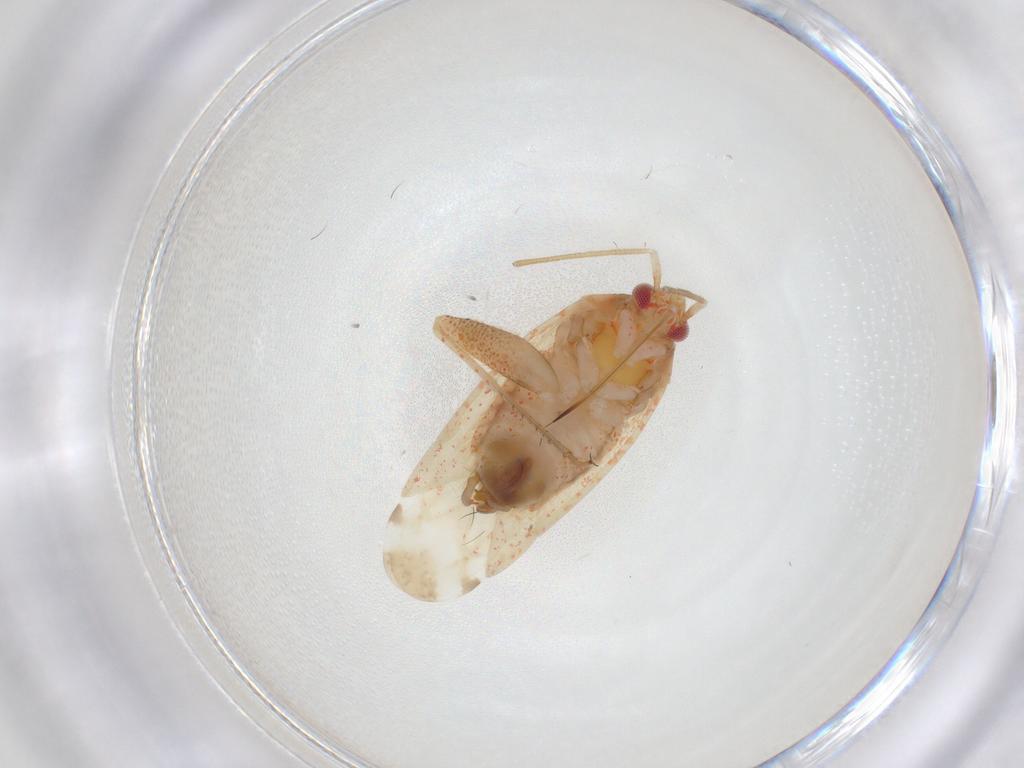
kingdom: Animalia
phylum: Arthropoda
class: Insecta
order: Hemiptera
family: Miridae
